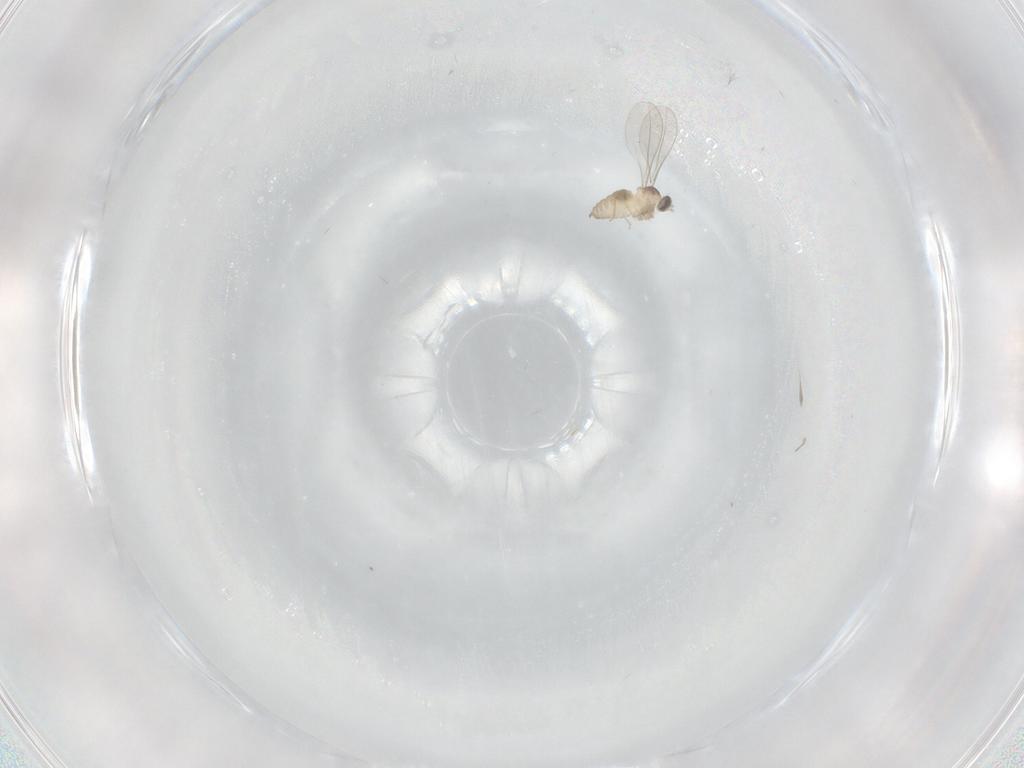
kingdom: Animalia
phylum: Arthropoda
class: Insecta
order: Diptera
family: Cecidomyiidae
